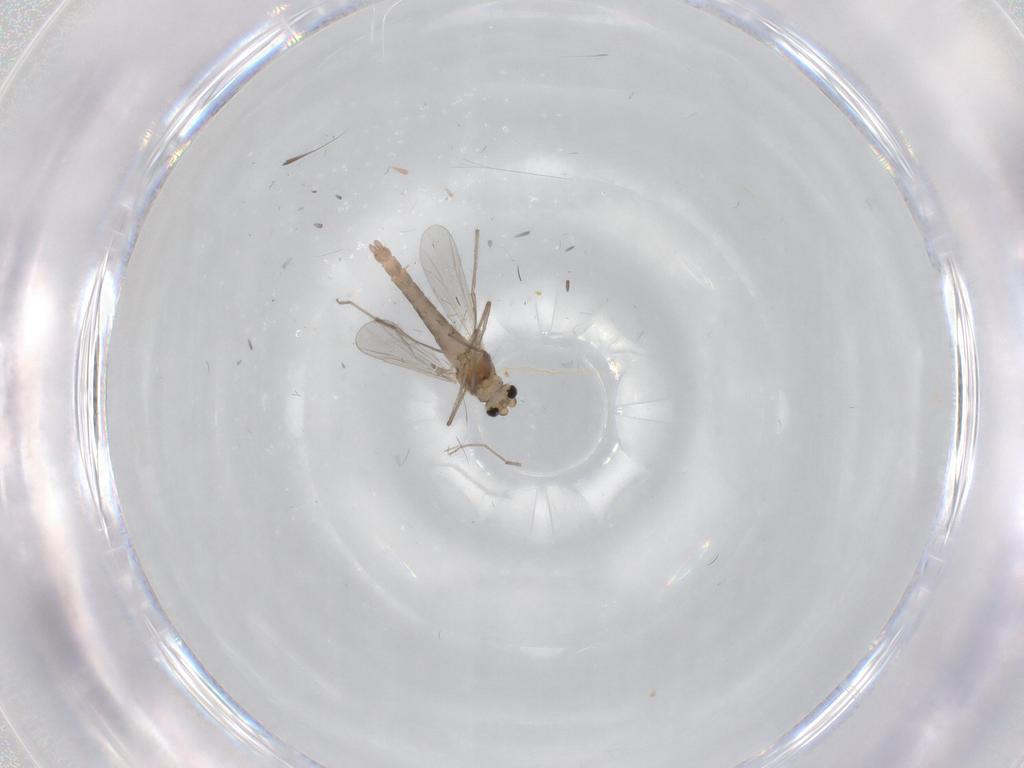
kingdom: Animalia
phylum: Arthropoda
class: Insecta
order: Diptera
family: Chironomidae
